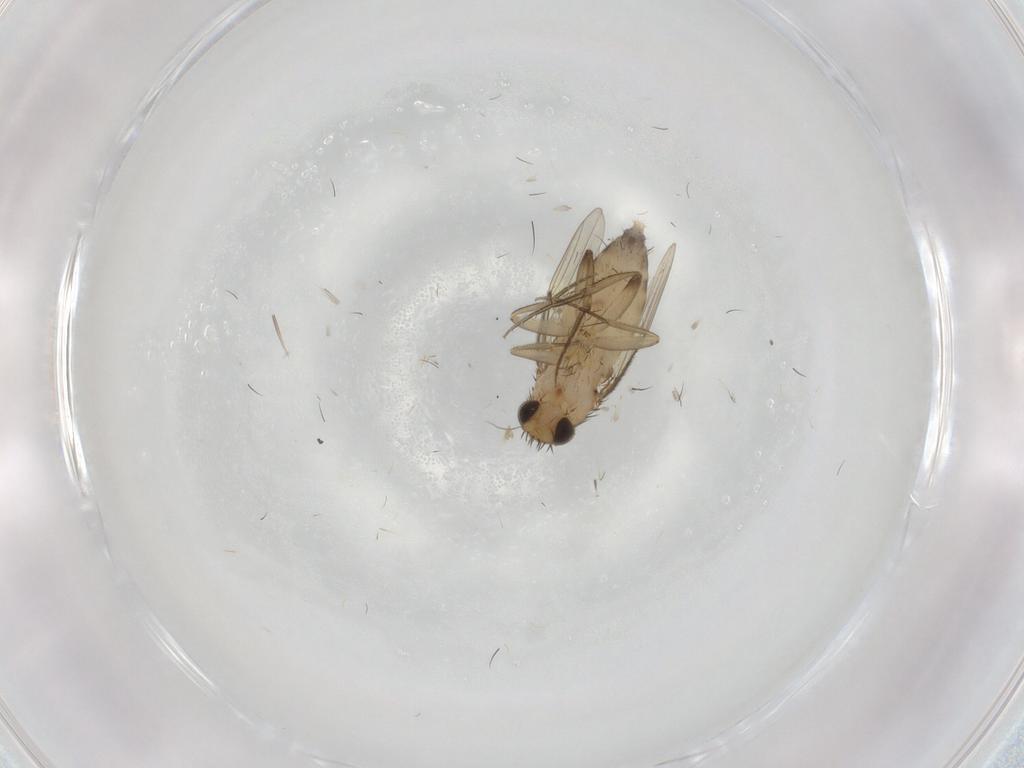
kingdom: Animalia
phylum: Arthropoda
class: Insecta
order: Diptera
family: Phoridae
